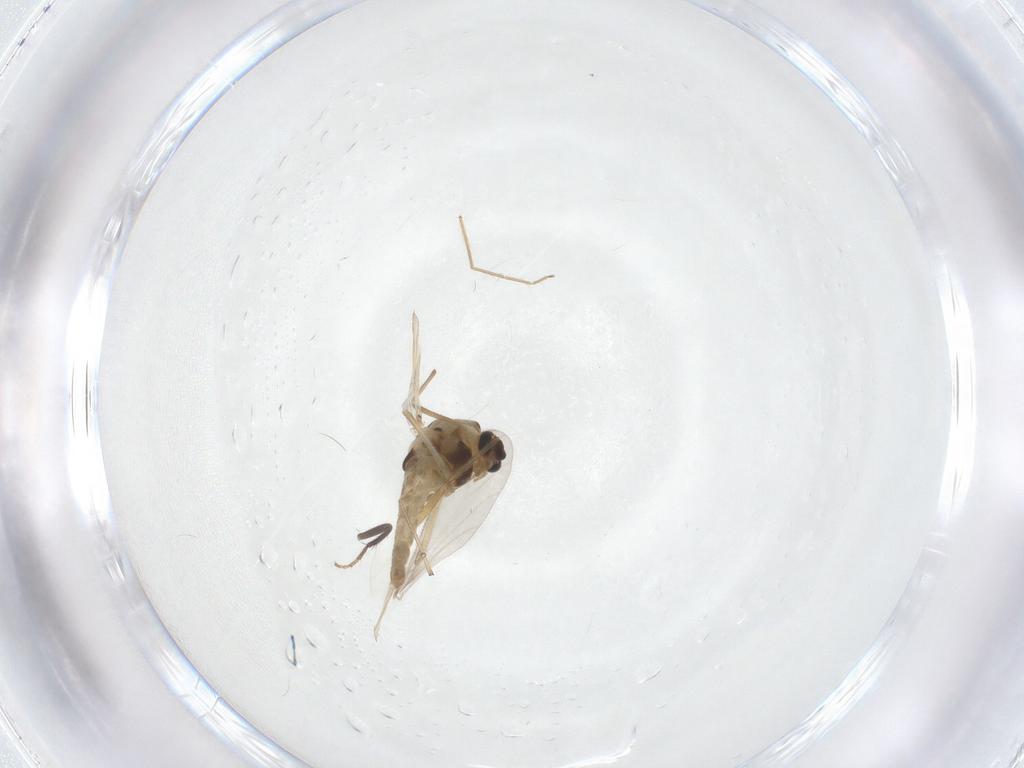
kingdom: Animalia
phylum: Arthropoda
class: Insecta
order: Diptera
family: Chironomidae
